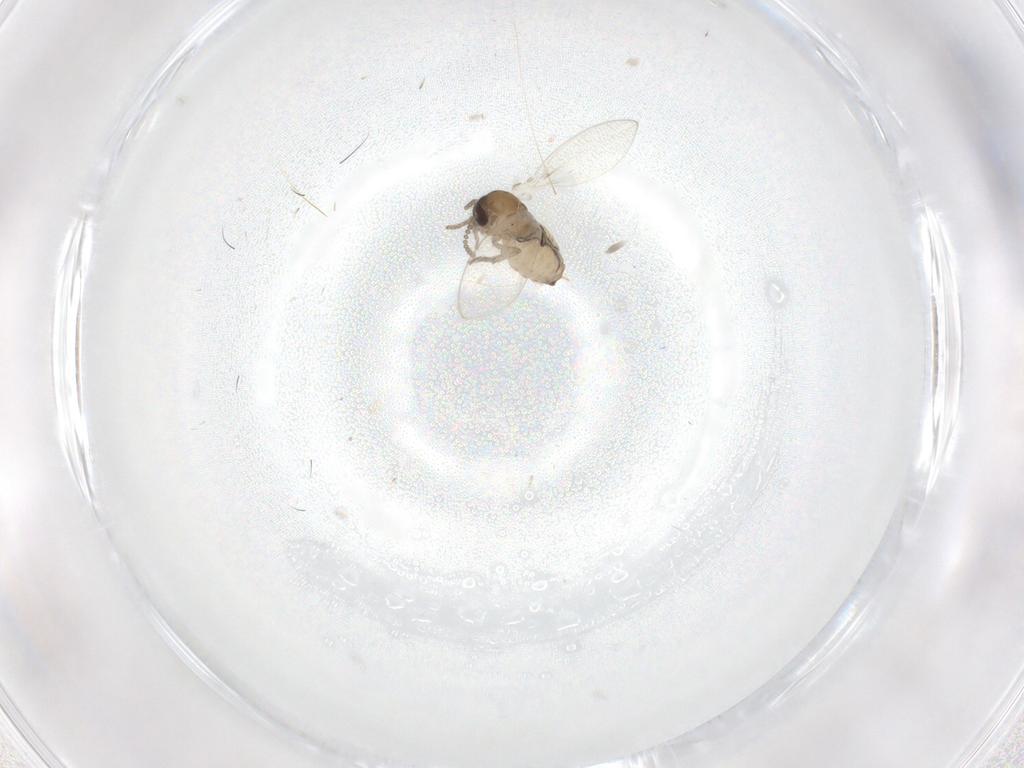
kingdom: Animalia
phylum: Arthropoda
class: Insecta
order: Diptera
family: Psychodidae
